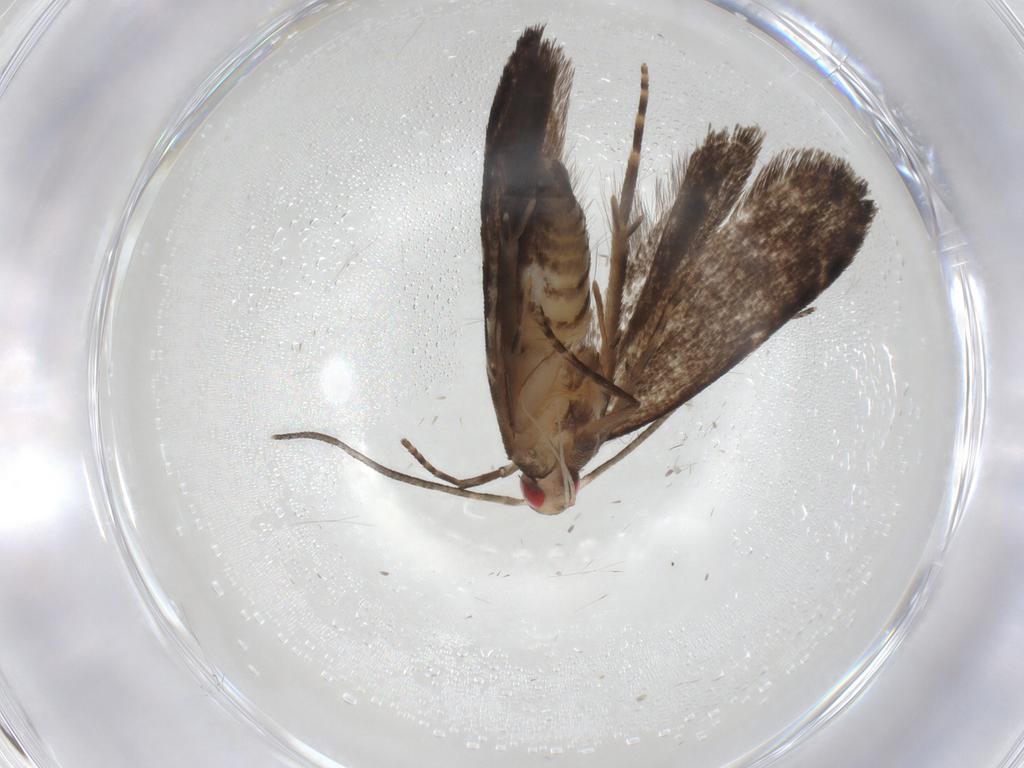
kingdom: Animalia
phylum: Arthropoda
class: Insecta
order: Lepidoptera
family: Gelechiidae
